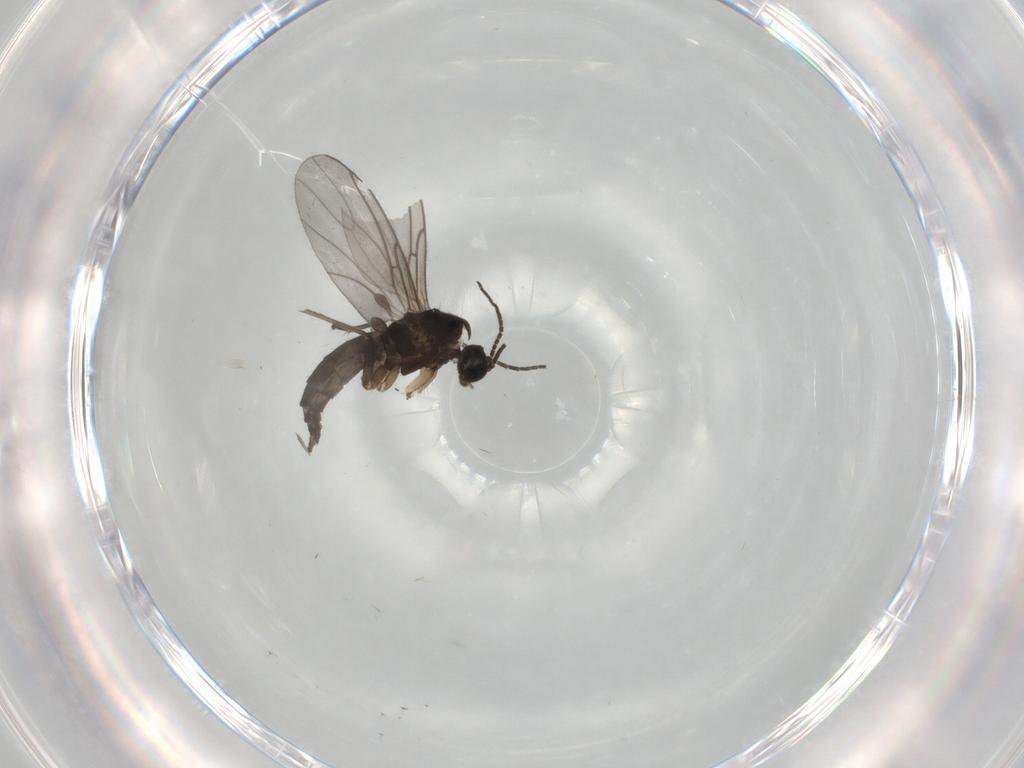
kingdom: Animalia
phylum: Arthropoda
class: Insecta
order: Diptera
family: Sciaridae
